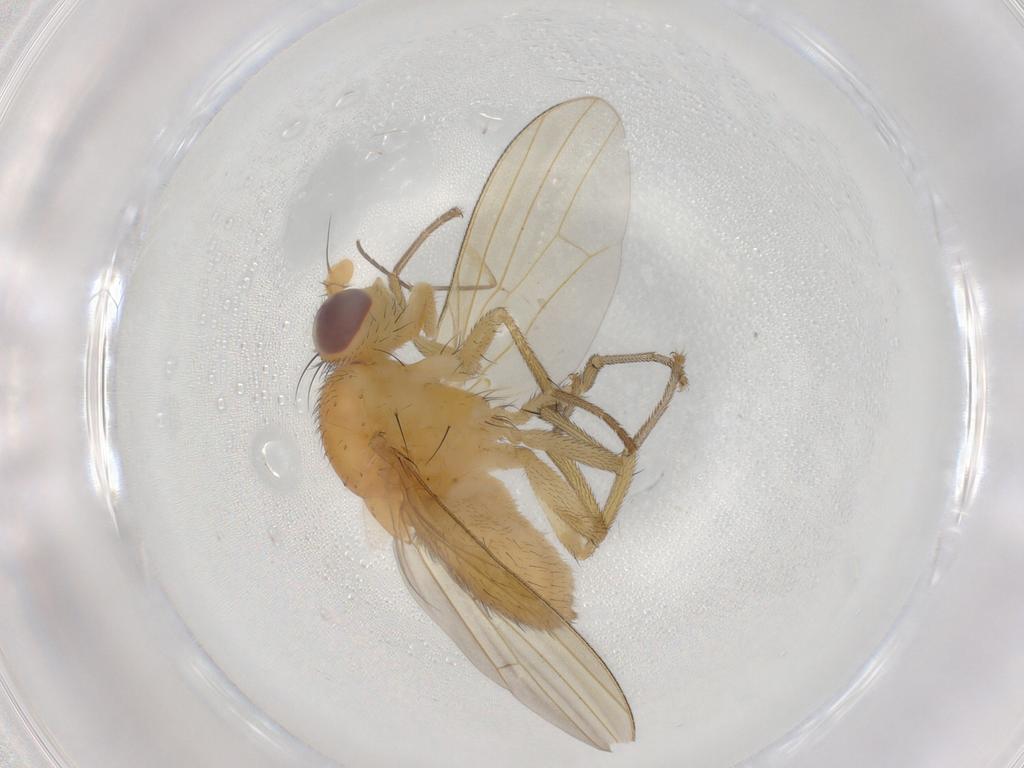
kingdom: Animalia
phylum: Arthropoda
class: Insecta
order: Diptera
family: Sciaridae
